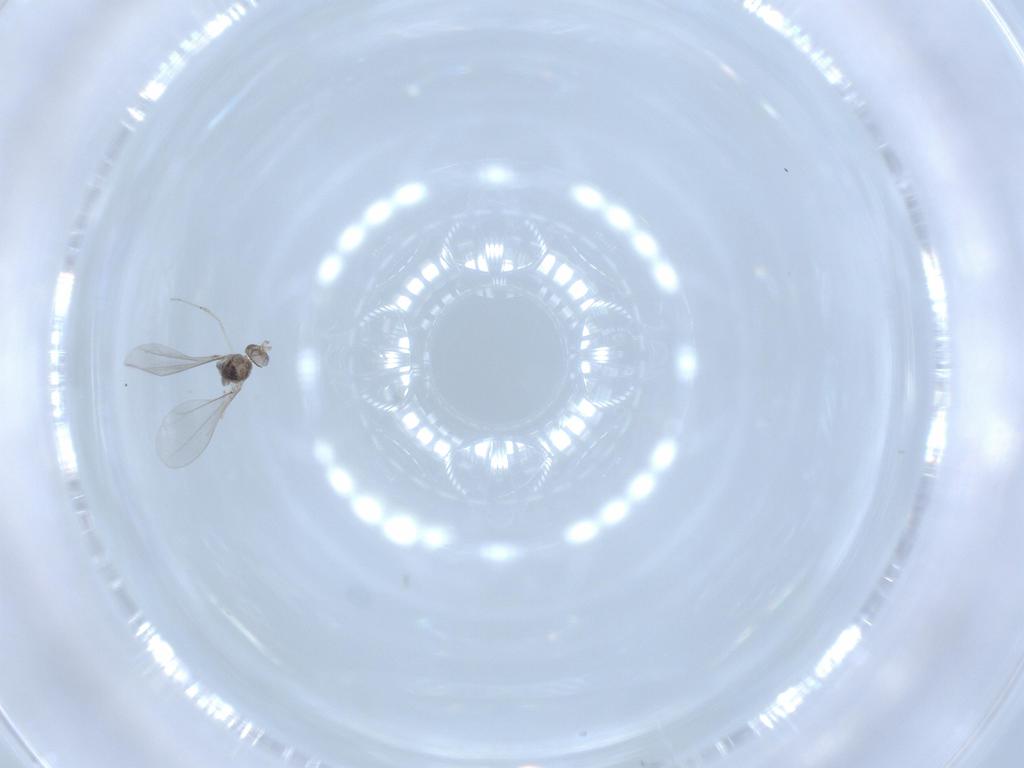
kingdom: Animalia
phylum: Arthropoda
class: Insecta
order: Diptera
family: Cecidomyiidae
